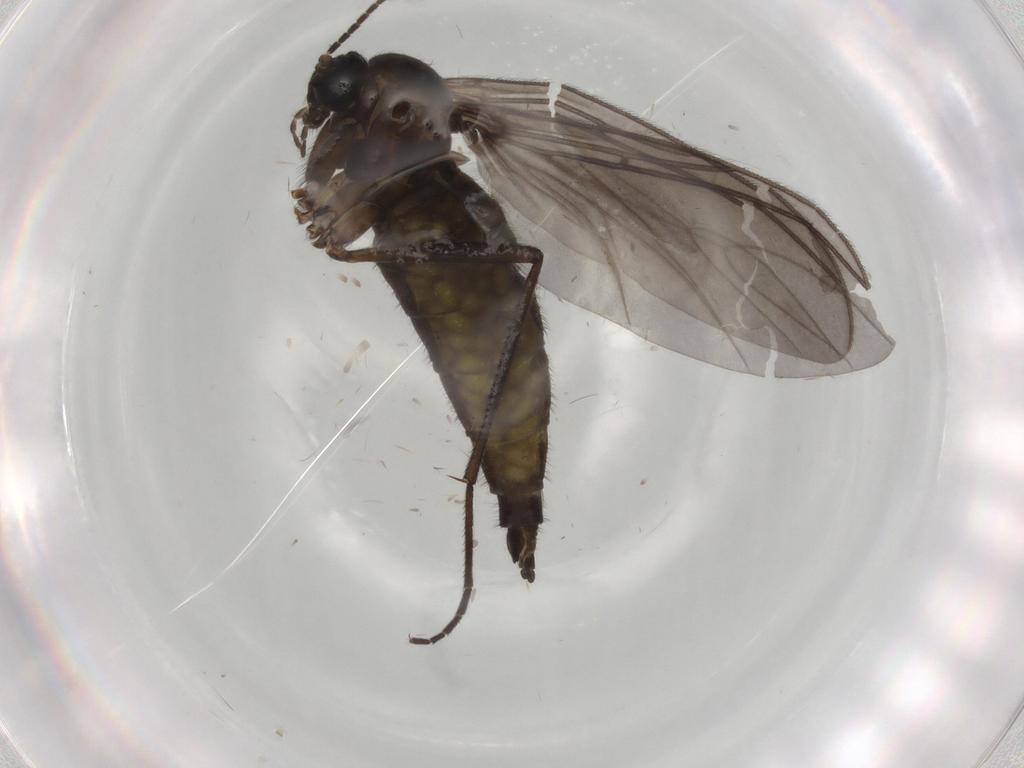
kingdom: Animalia
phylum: Arthropoda
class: Insecta
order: Diptera
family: Sciaridae
